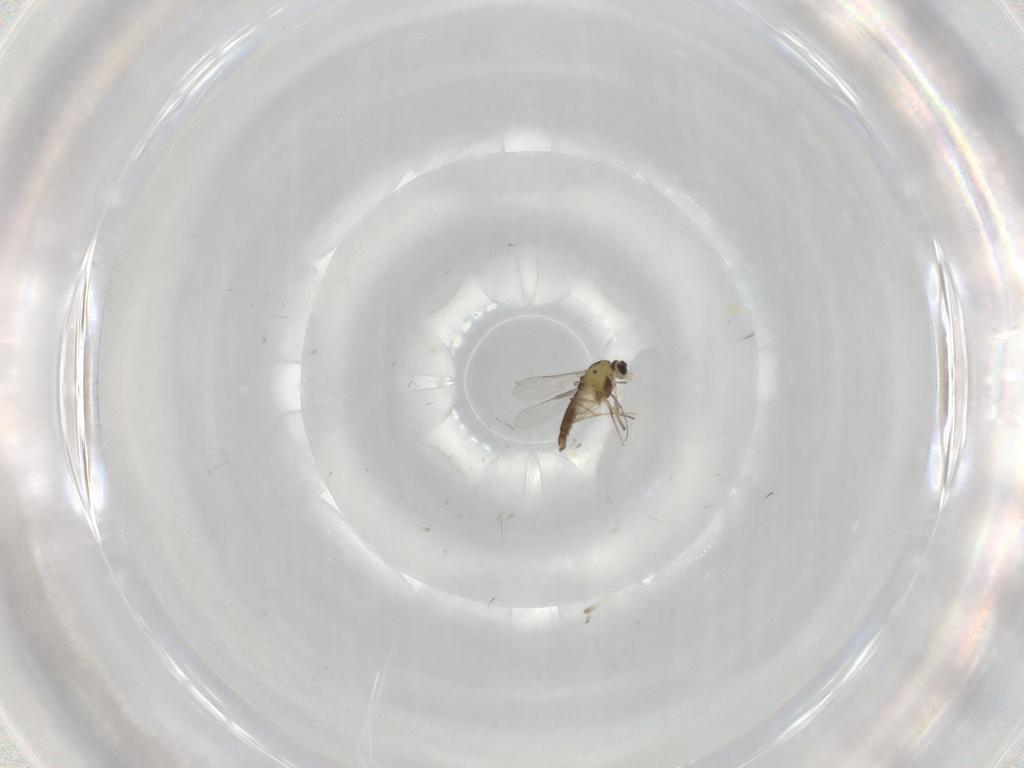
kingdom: Animalia
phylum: Arthropoda
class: Insecta
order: Diptera
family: Chironomidae
